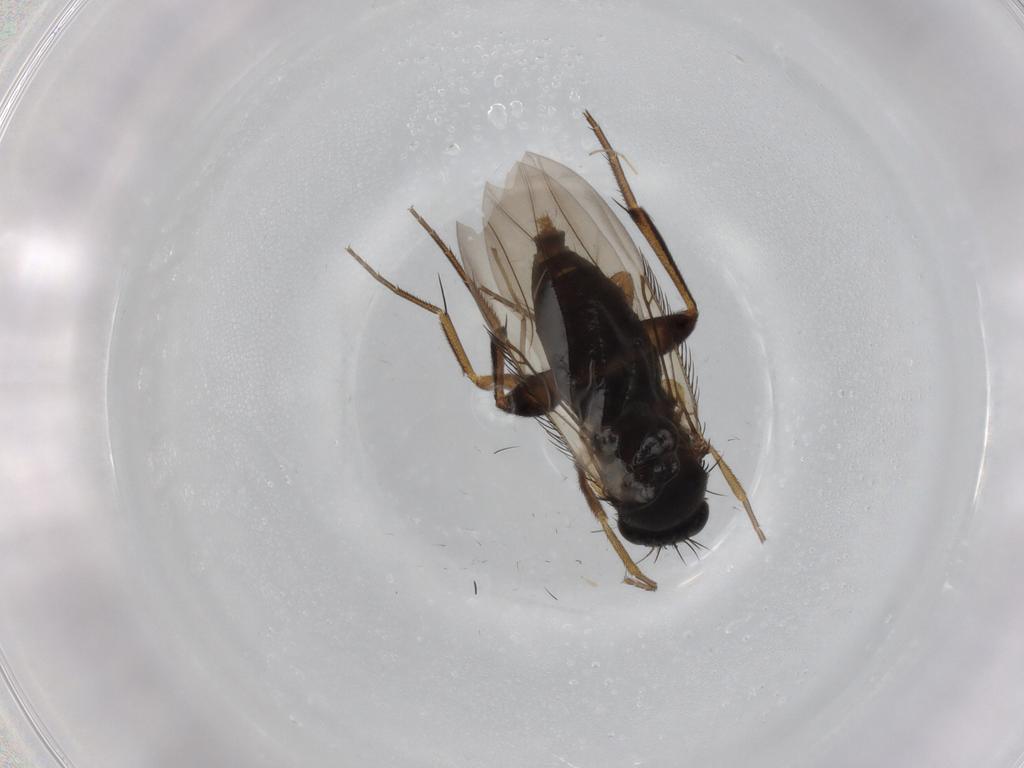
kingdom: Animalia
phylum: Arthropoda
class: Insecta
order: Diptera
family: Phoridae
